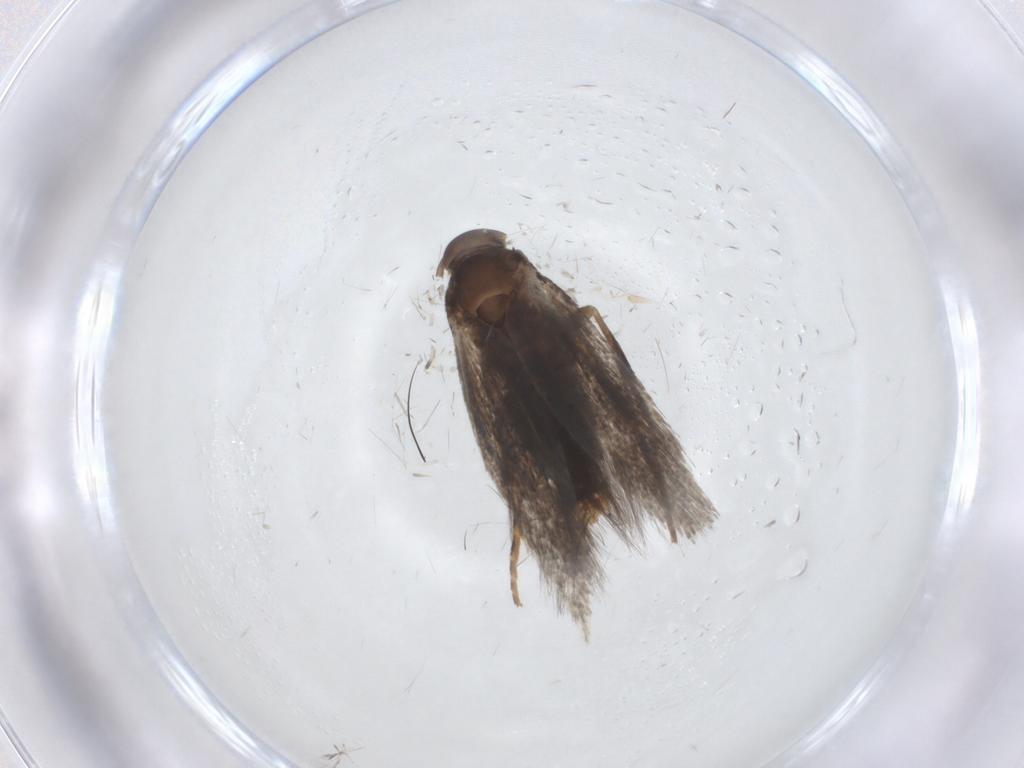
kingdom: Animalia
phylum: Arthropoda
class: Insecta
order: Lepidoptera
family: Elachistidae
